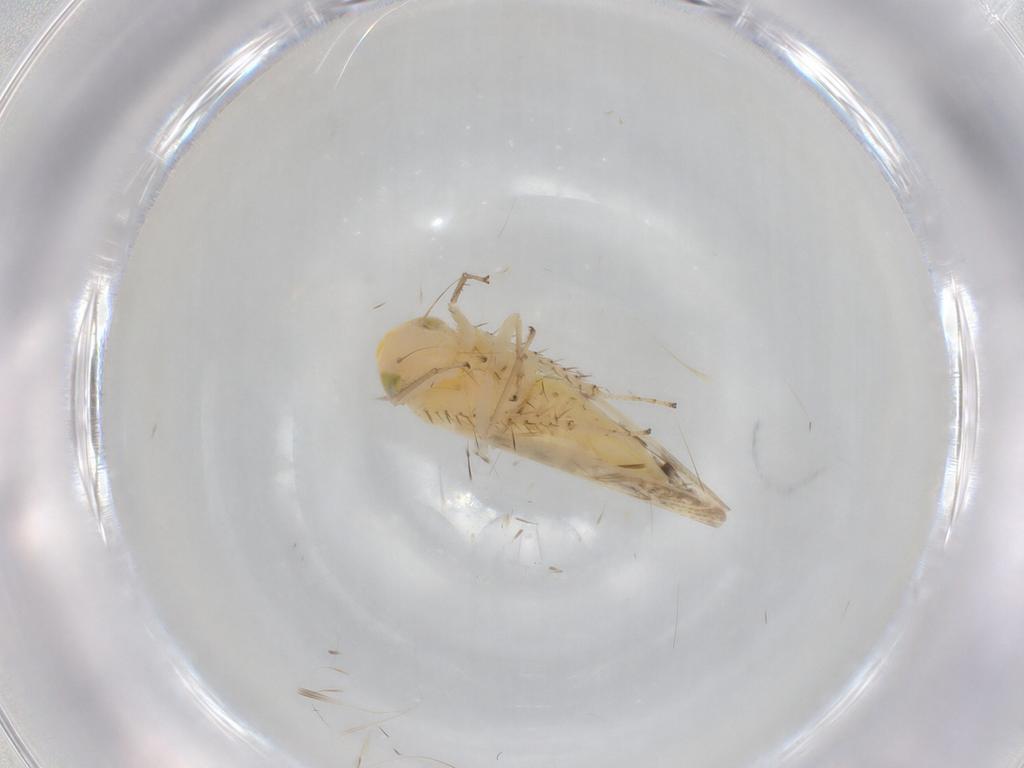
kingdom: Animalia
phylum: Arthropoda
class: Insecta
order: Hemiptera
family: Cicadellidae
